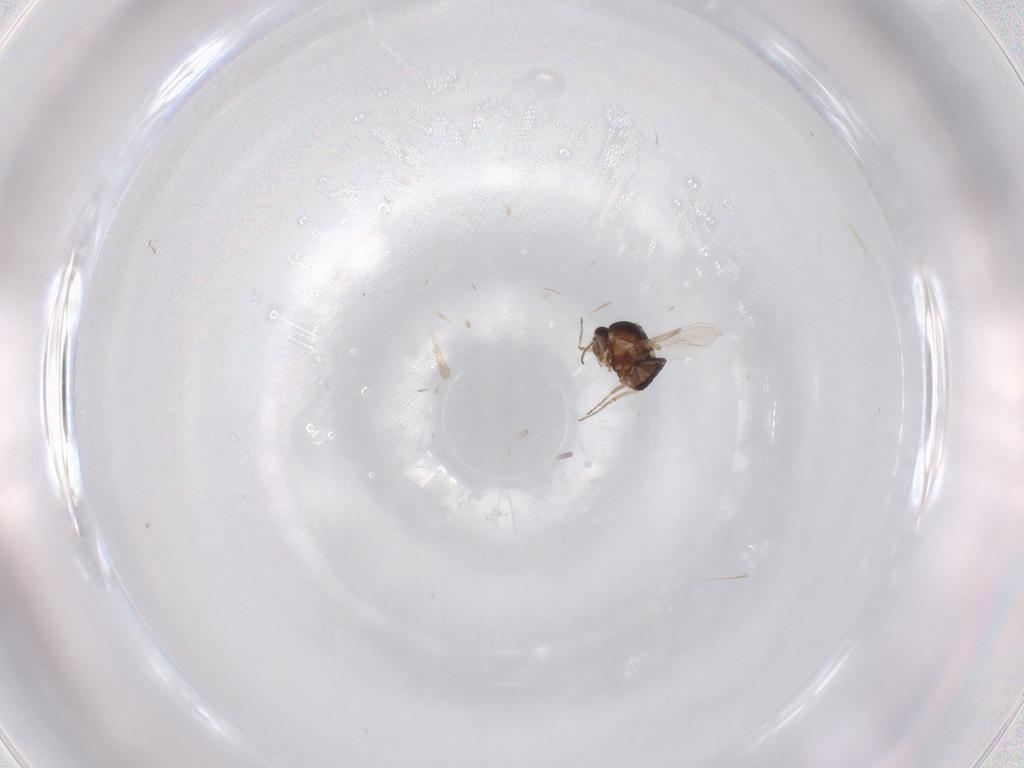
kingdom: Animalia
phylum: Arthropoda
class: Insecta
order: Diptera
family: Psychodidae
